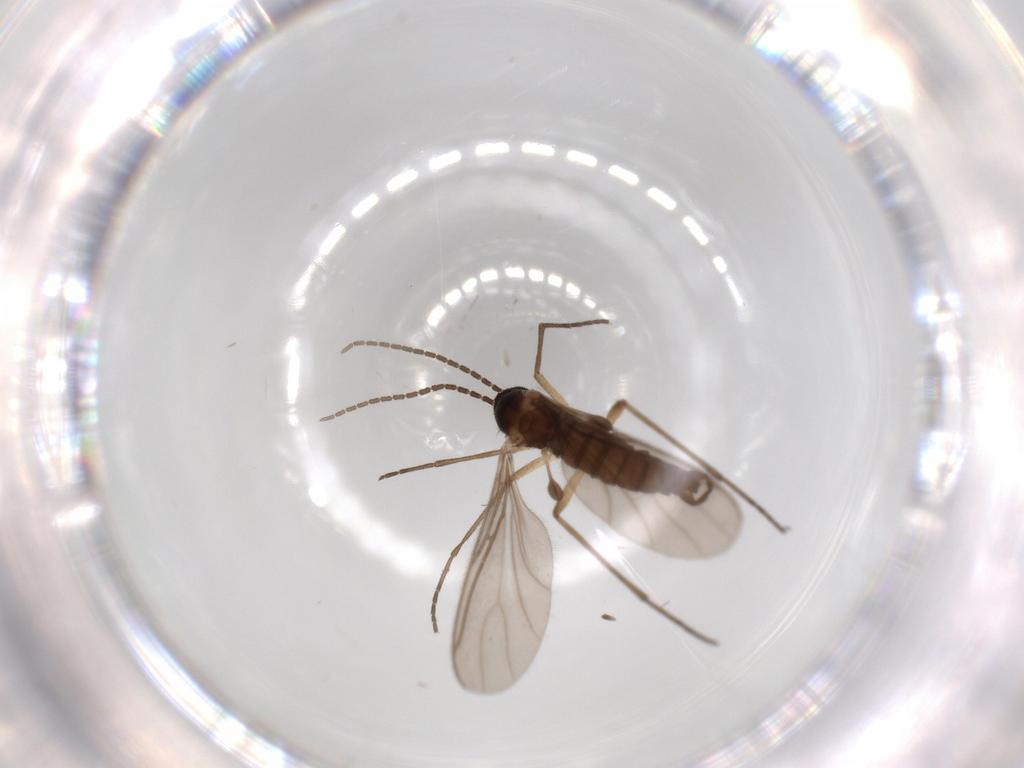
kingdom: Animalia
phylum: Arthropoda
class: Insecta
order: Diptera
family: Sciaridae
